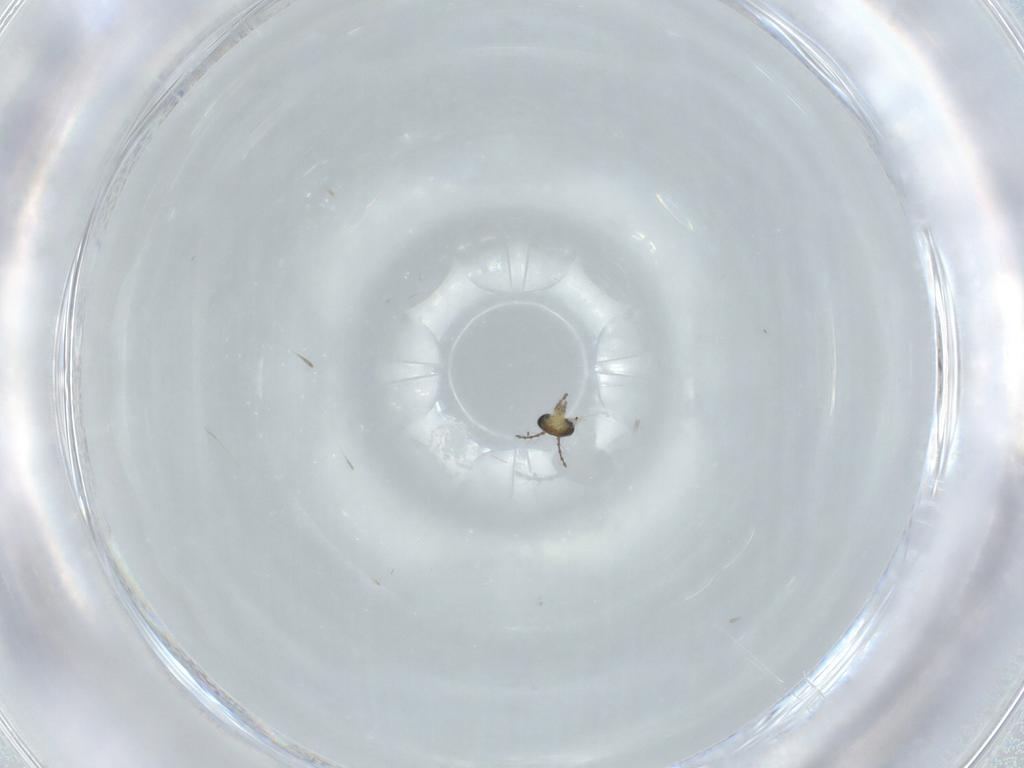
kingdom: Animalia
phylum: Arthropoda
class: Insecta
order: Diptera
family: Chironomidae
